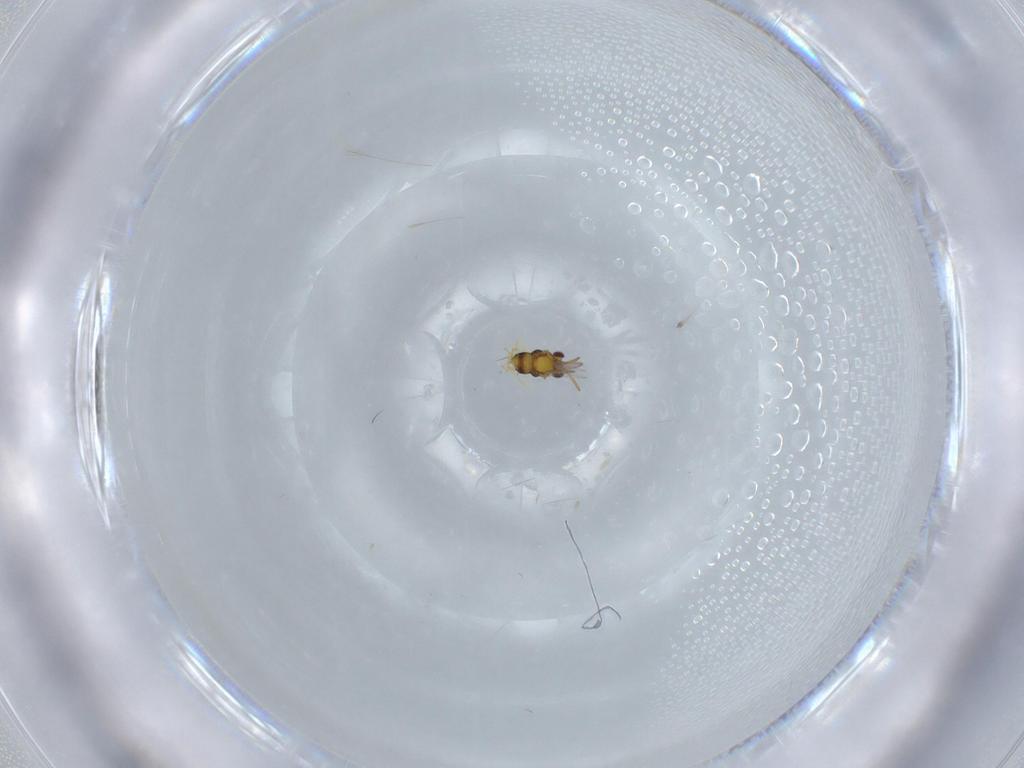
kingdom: Animalia
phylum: Arthropoda
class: Insecta
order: Hymenoptera
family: Aphelinidae
